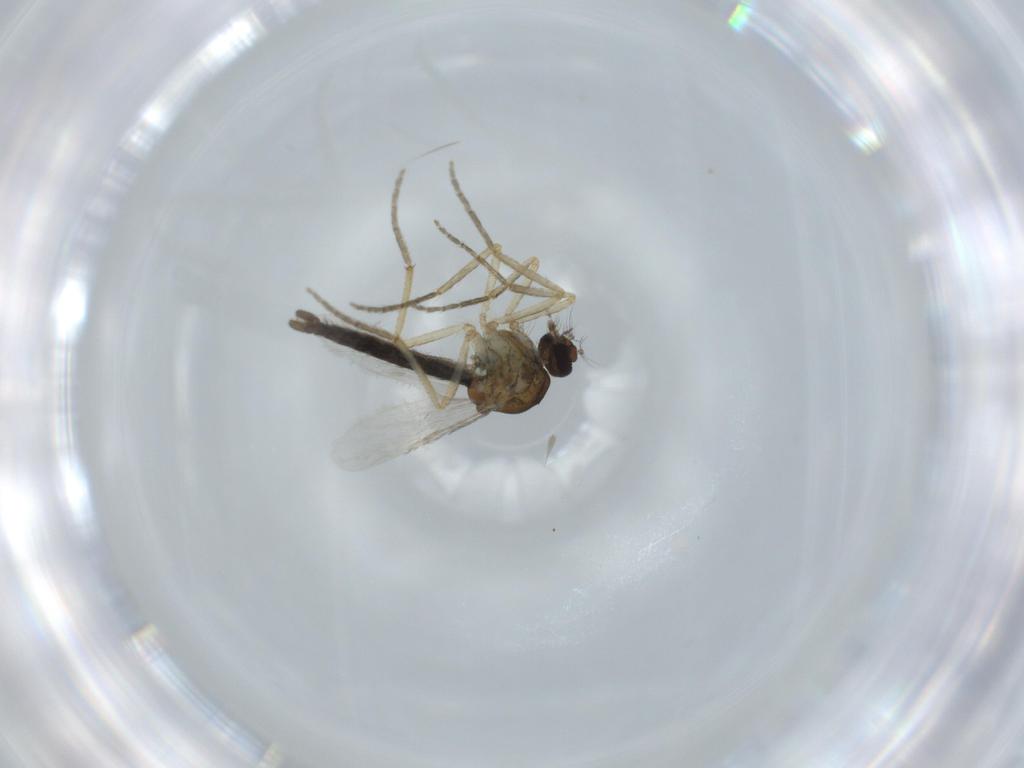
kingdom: Animalia
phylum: Arthropoda
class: Insecta
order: Diptera
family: Ceratopogonidae
